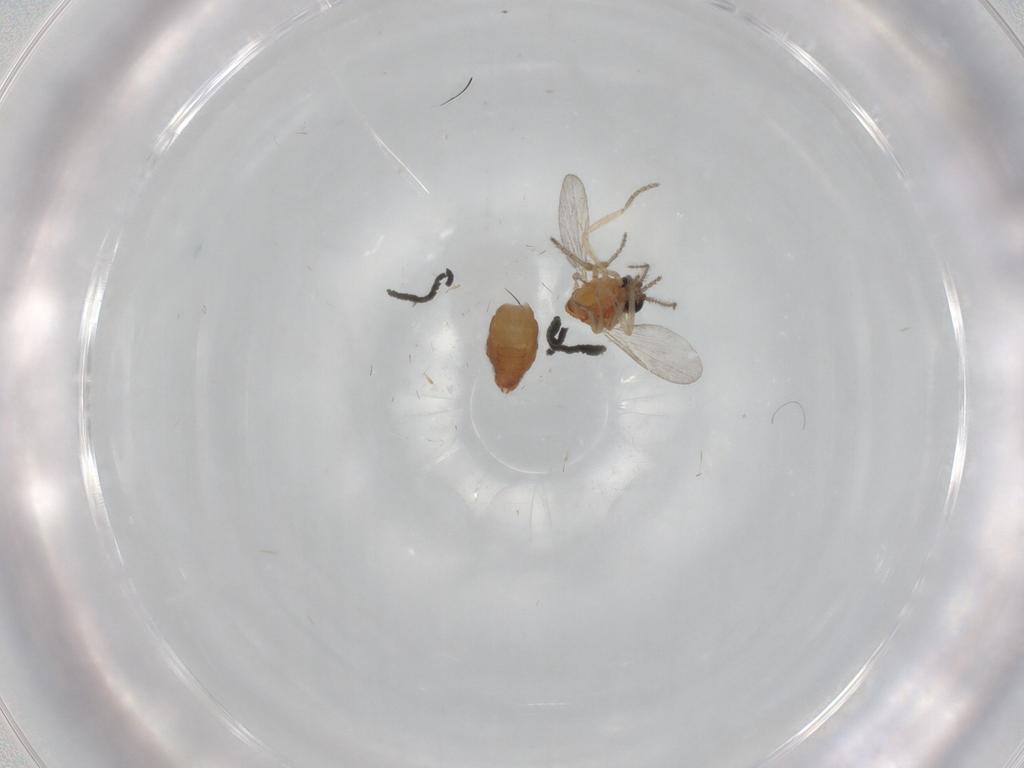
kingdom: Animalia
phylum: Arthropoda
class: Insecta
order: Diptera
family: Ceratopogonidae
